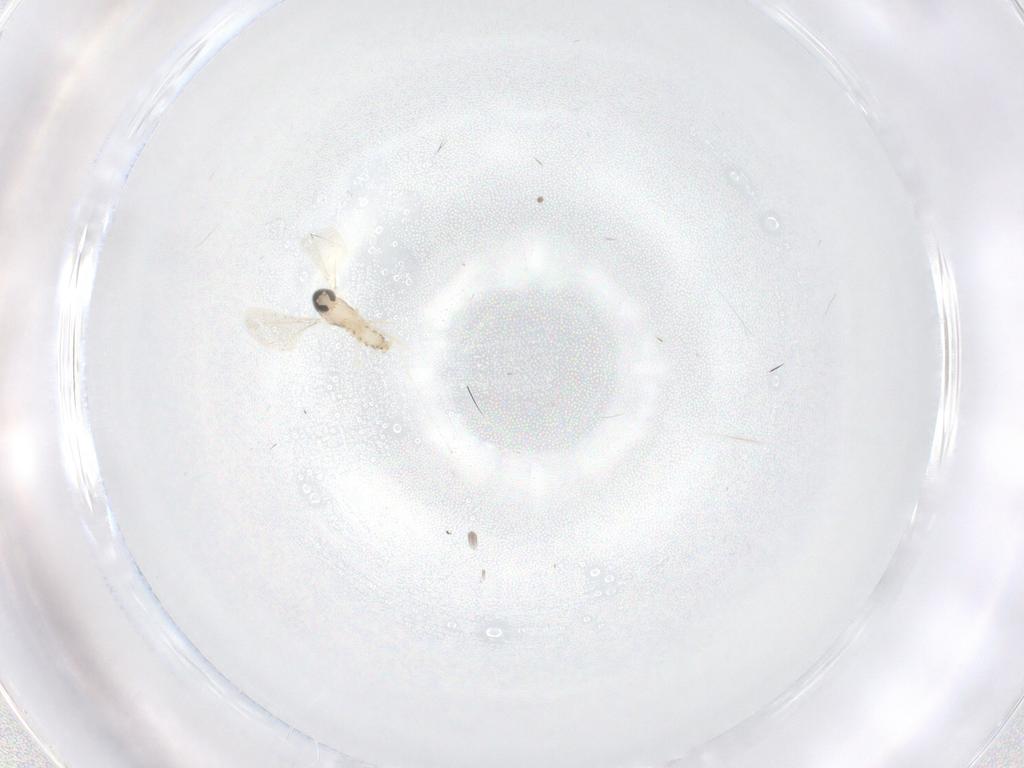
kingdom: Animalia
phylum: Arthropoda
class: Insecta
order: Diptera
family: Cecidomyiidae
